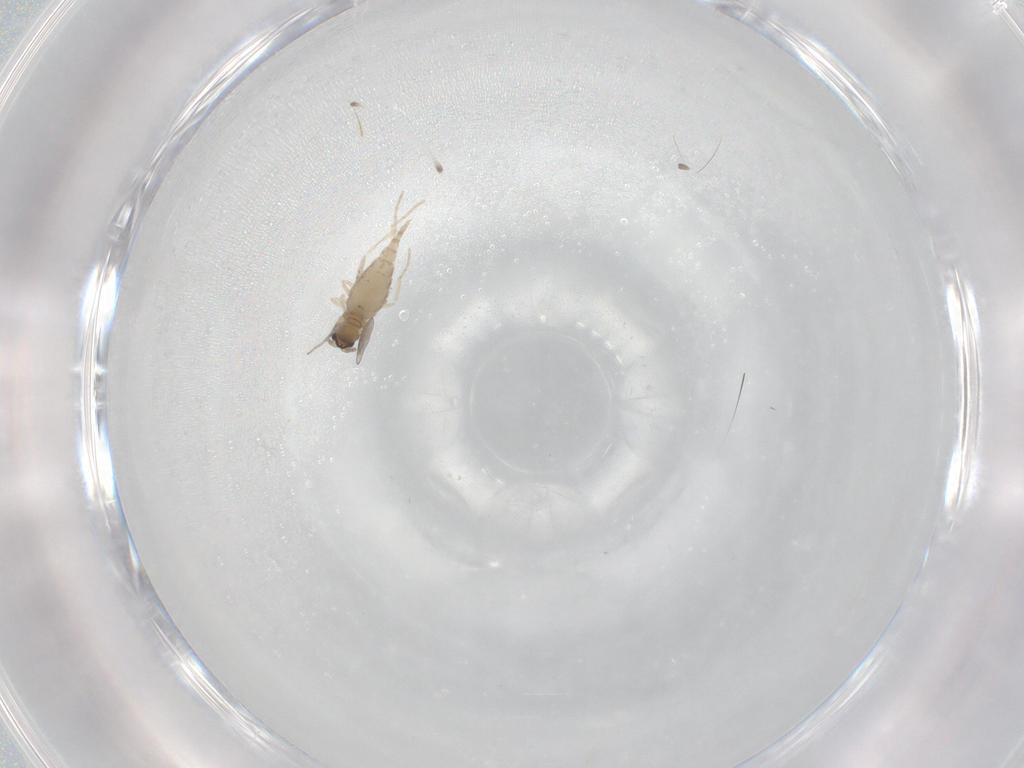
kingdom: Animalia
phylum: Arthropoda
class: Insecta
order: Diptera
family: Cecidomyiidae
